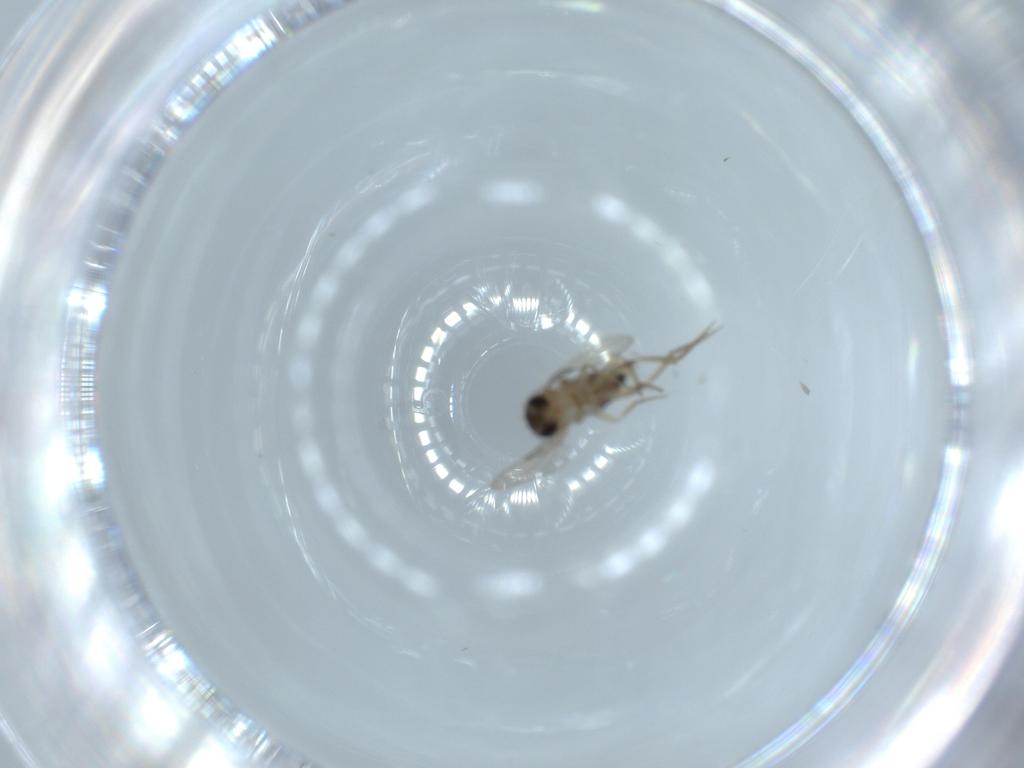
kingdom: Animalia
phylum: Arthropoda
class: Insecta
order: Diptera
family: Phoridae
